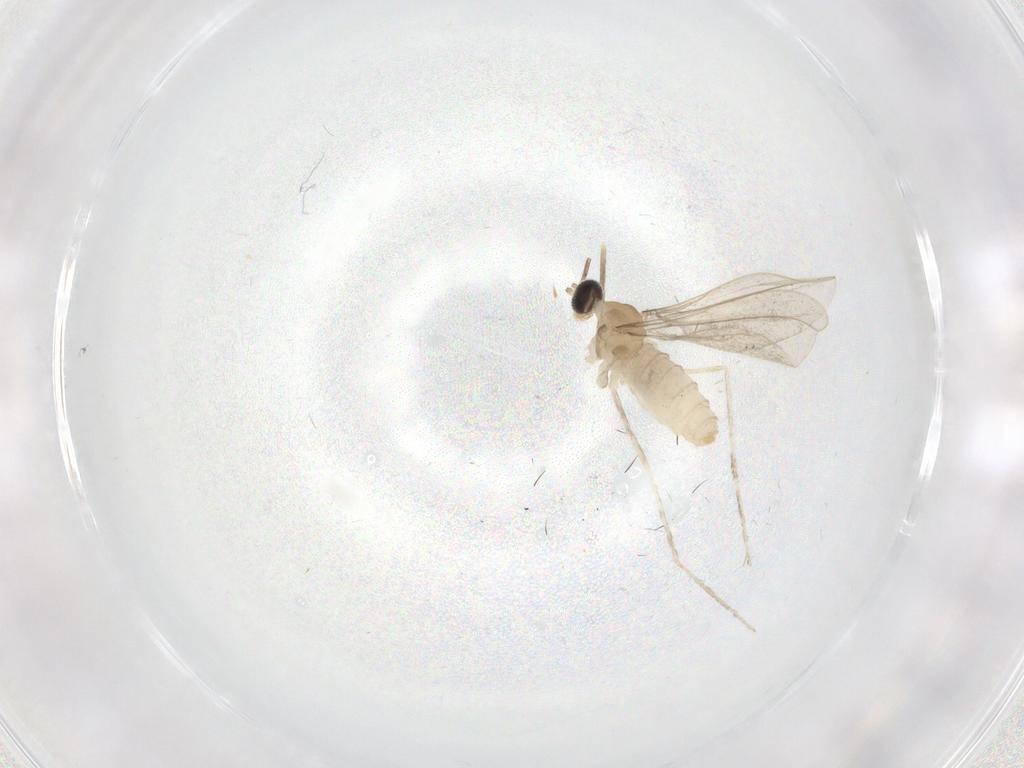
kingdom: Animalia
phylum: Arthropoda
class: Insecta
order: Diptera
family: Cecidomyiidae
